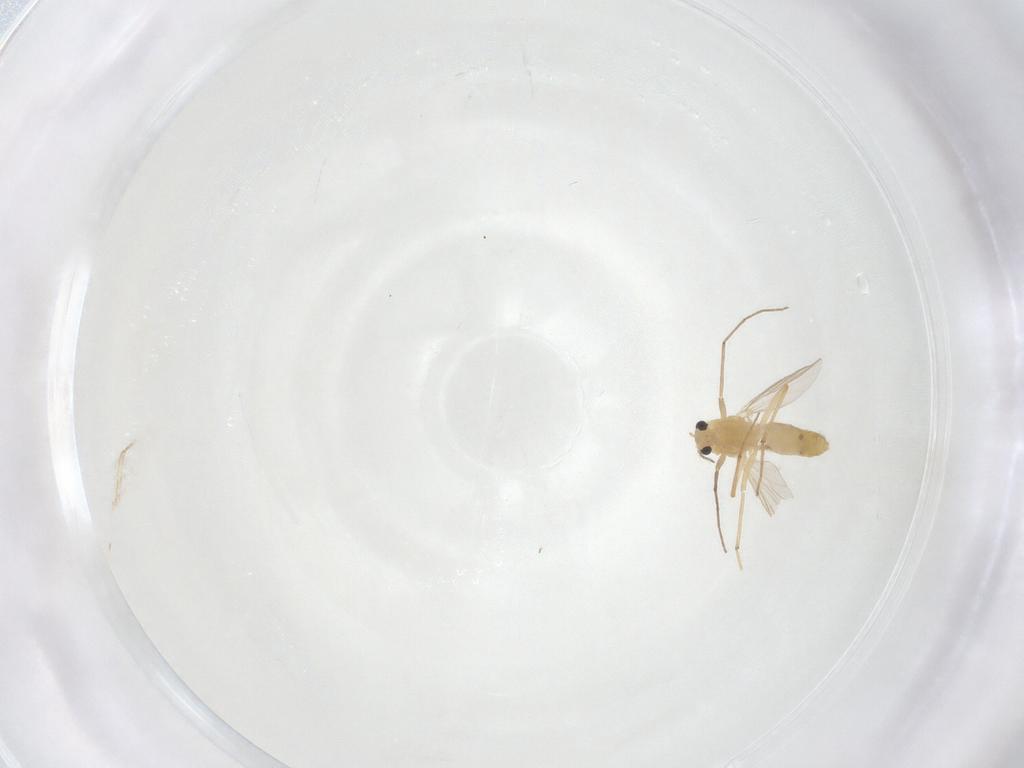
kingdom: Animalia
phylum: Arthropoda
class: Insecta
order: Diptera
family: Chironomidae
